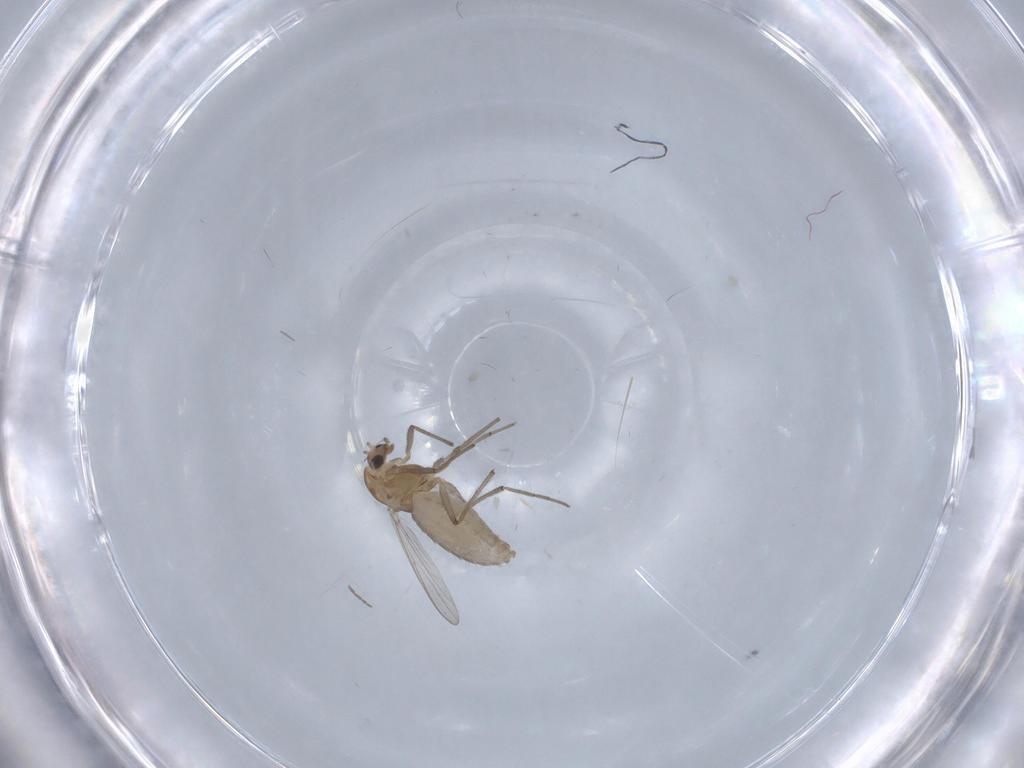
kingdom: Animalia
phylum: Arthropoda
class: Insecta
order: Diptera
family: Chironomidae
